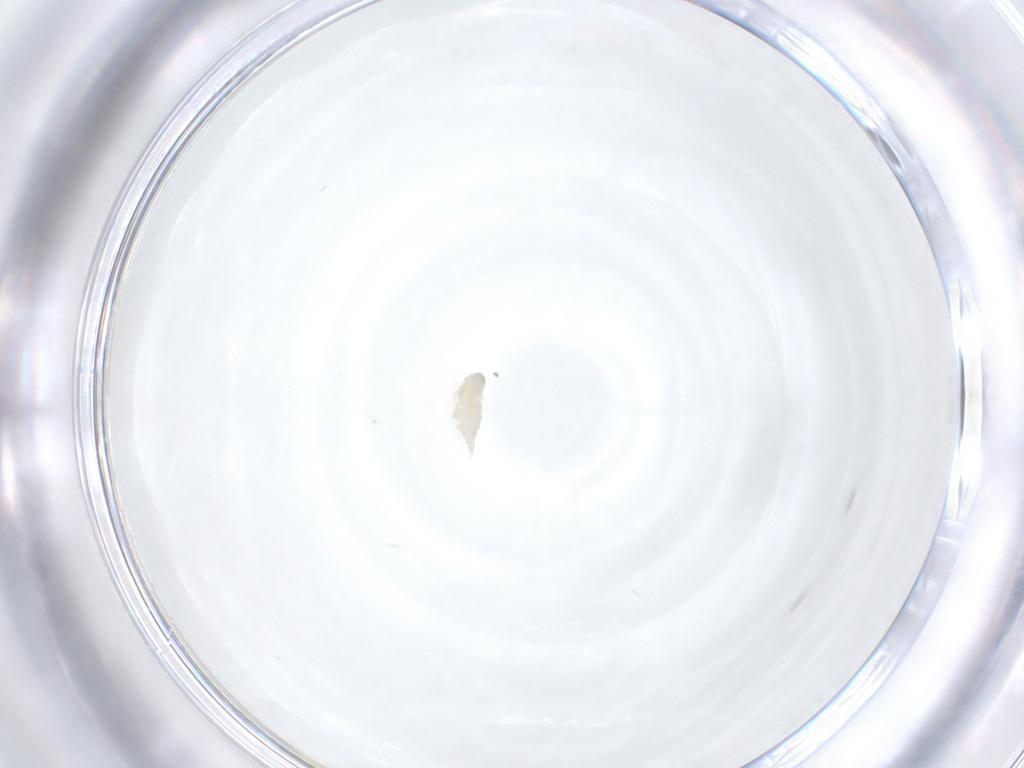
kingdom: Animalia
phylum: Arthropoda
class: Insecta
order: Diptera
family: Cecidomyiidae
